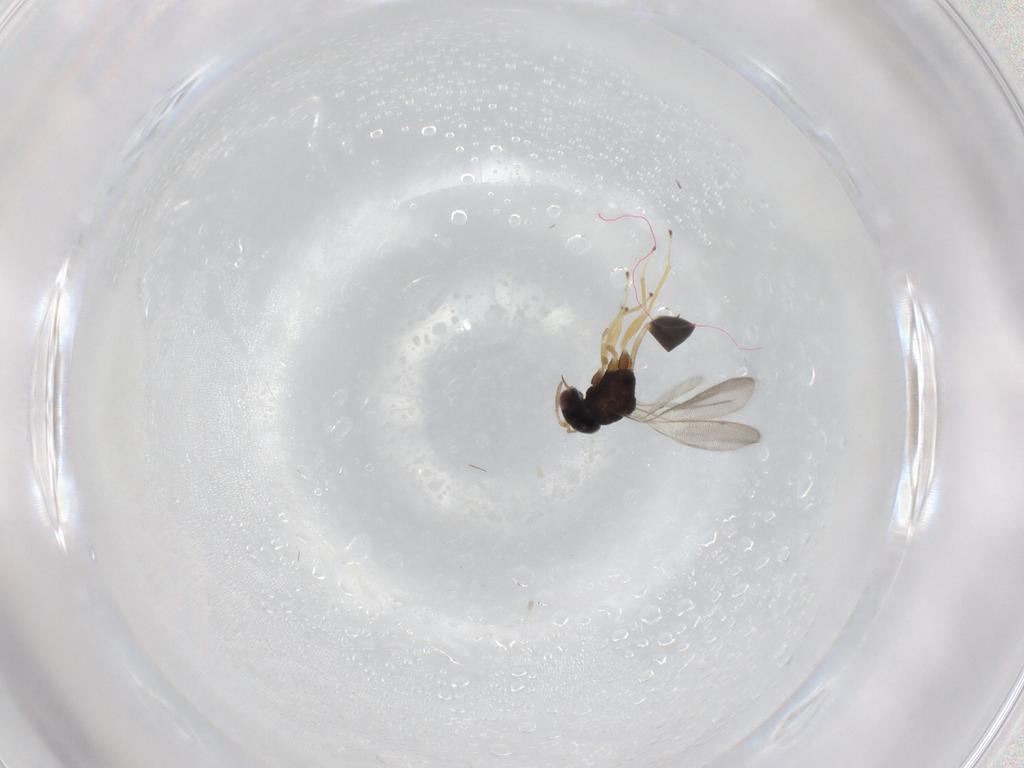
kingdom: Animalia
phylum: Arthropoda
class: Insecta
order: Hymenoptera
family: Eucharitidae
